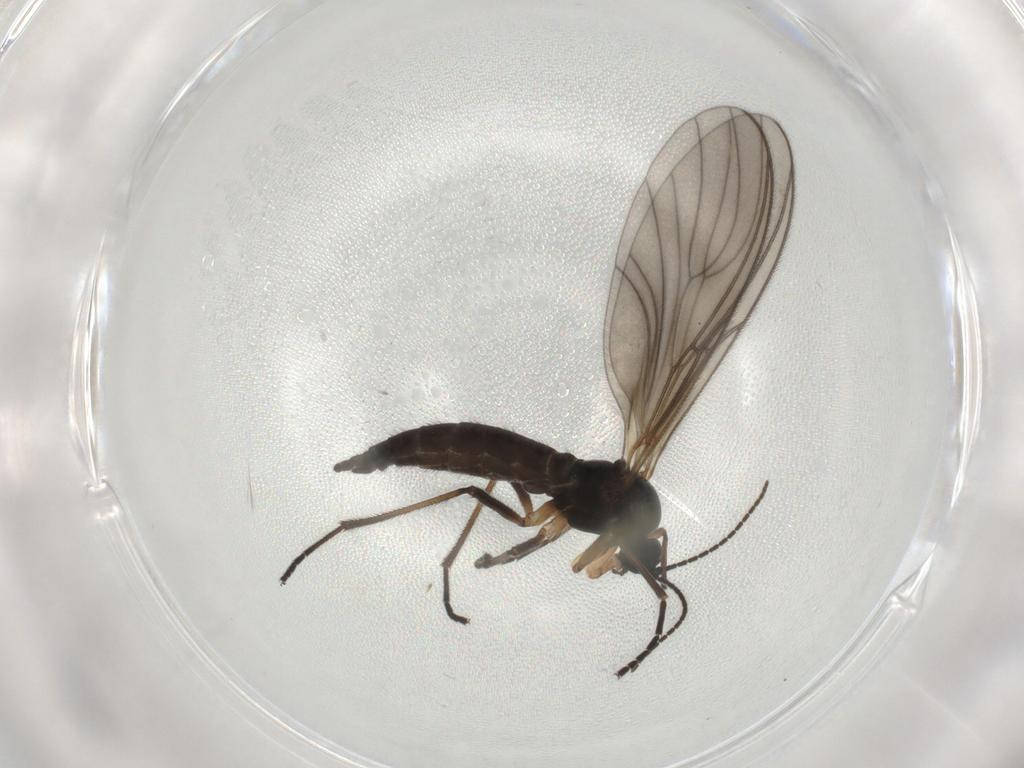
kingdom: Animalia
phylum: Arthropoda
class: Insecta
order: Diptera
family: Sciaridae
